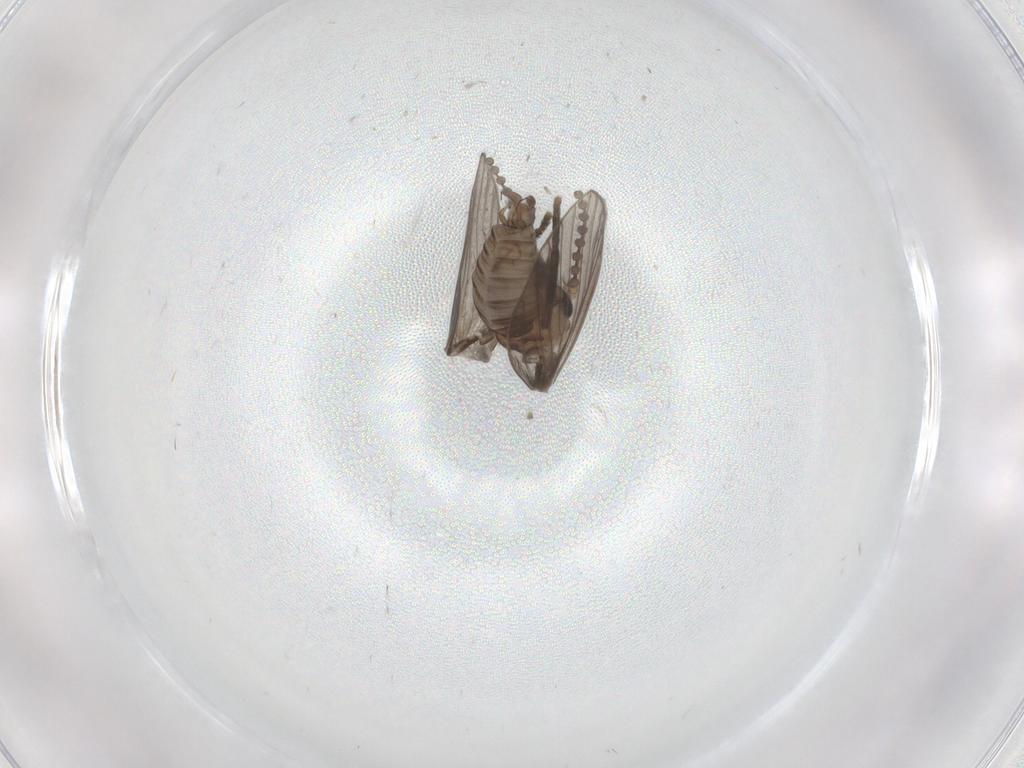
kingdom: Animalia
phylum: Arthropoda
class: Insecta
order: Diptera
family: Psychodidae
